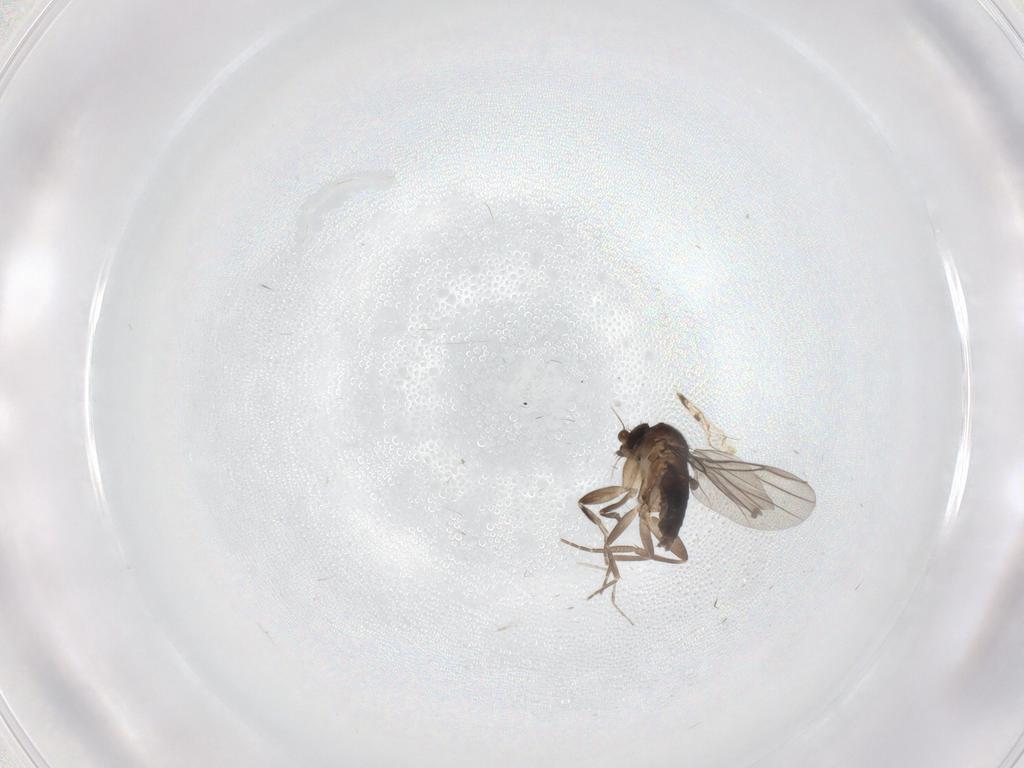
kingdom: Animalia
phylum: Arthropoda
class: Insecta
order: Diptera
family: Cecidomyiidae
